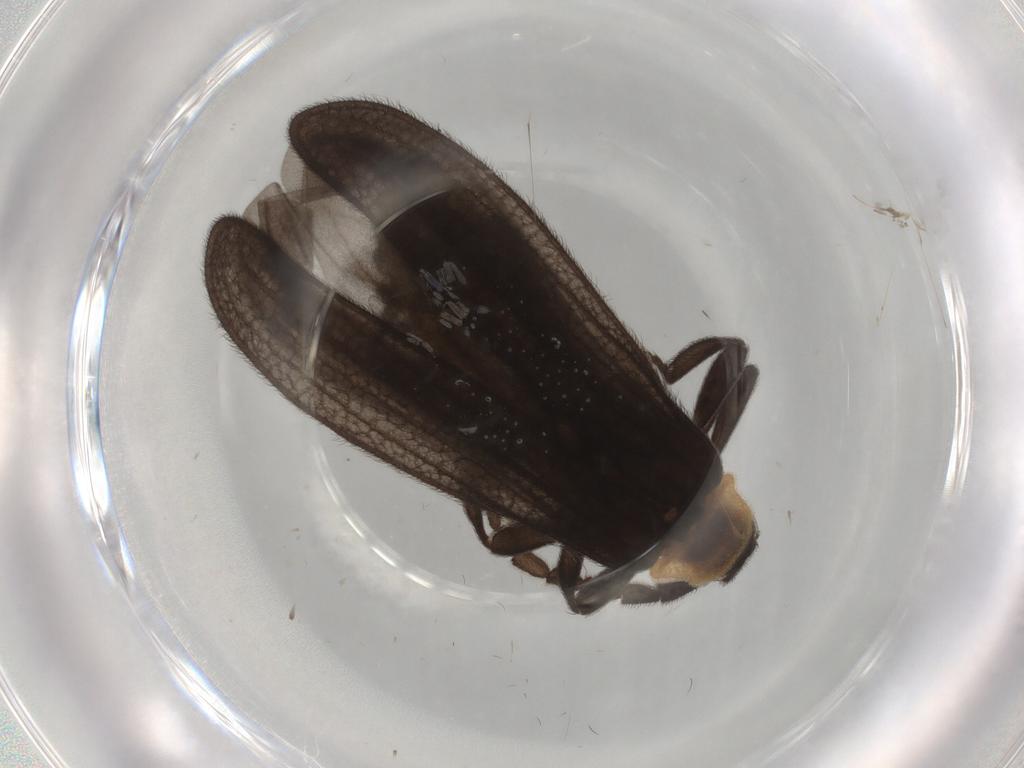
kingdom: Animalia
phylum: Arthropoda
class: Insecta
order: Coleoptera
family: Lycidae
